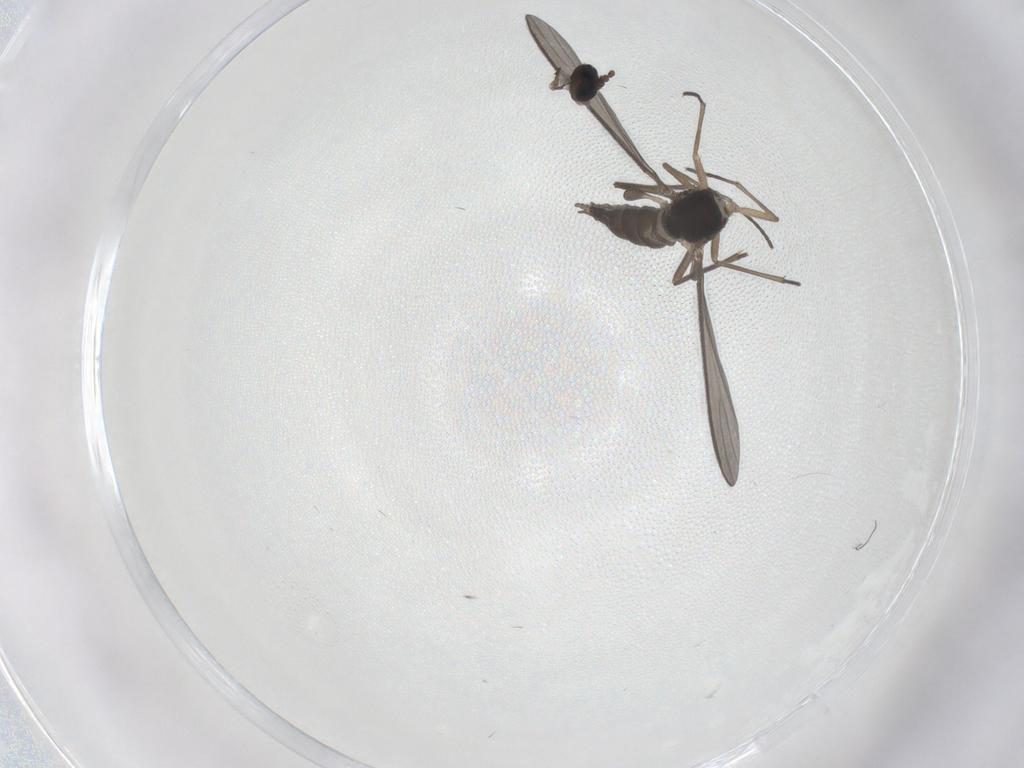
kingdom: Animalia
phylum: Arthropoda
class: Insecta
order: Diptera
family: Sciaridae
